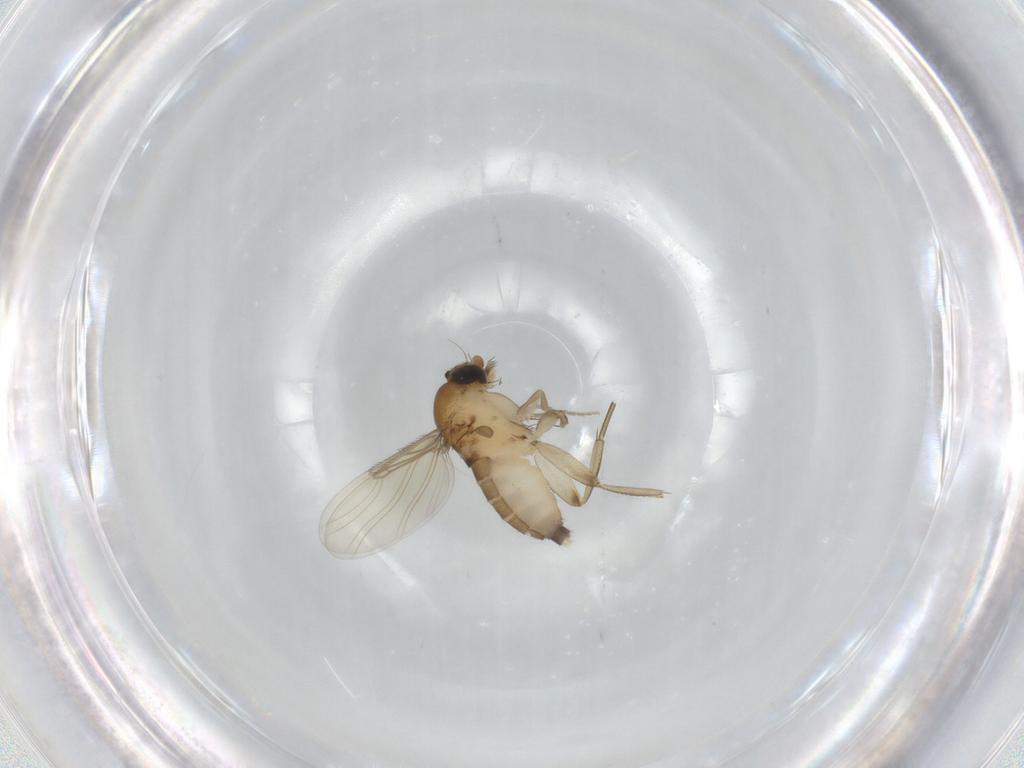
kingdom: Animalia
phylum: Arthropoda
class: Insecta
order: Diptera
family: Phoridae
